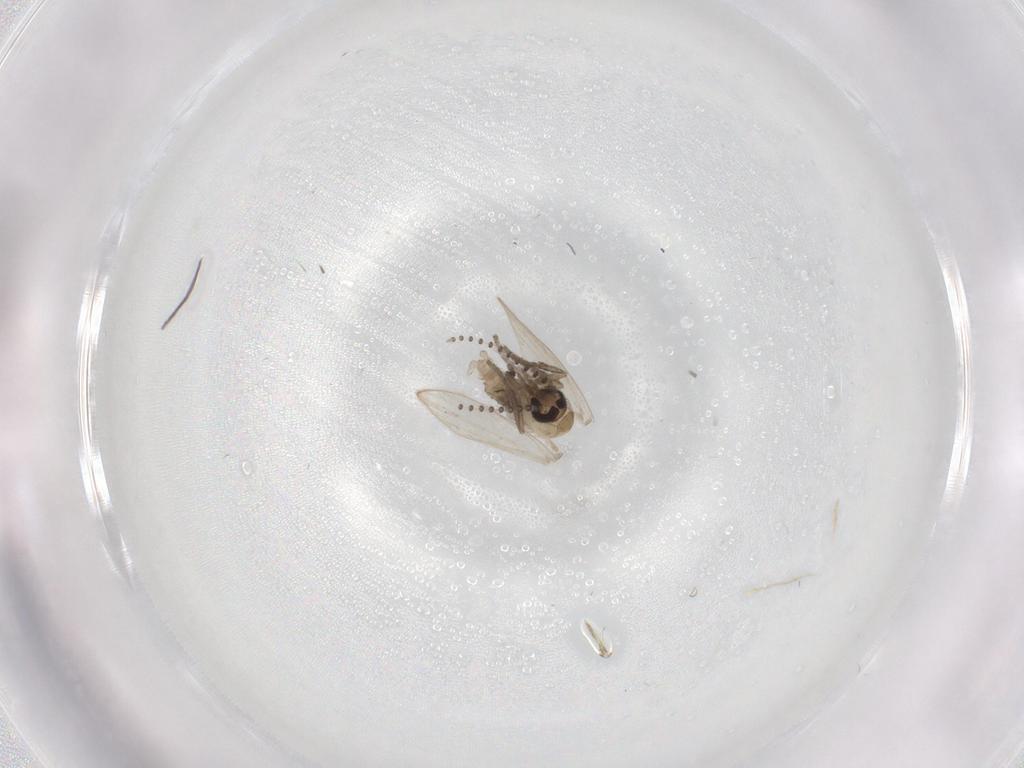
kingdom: Animalia
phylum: Arthropoda
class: Insecta
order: Diptera
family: Psychodidae
